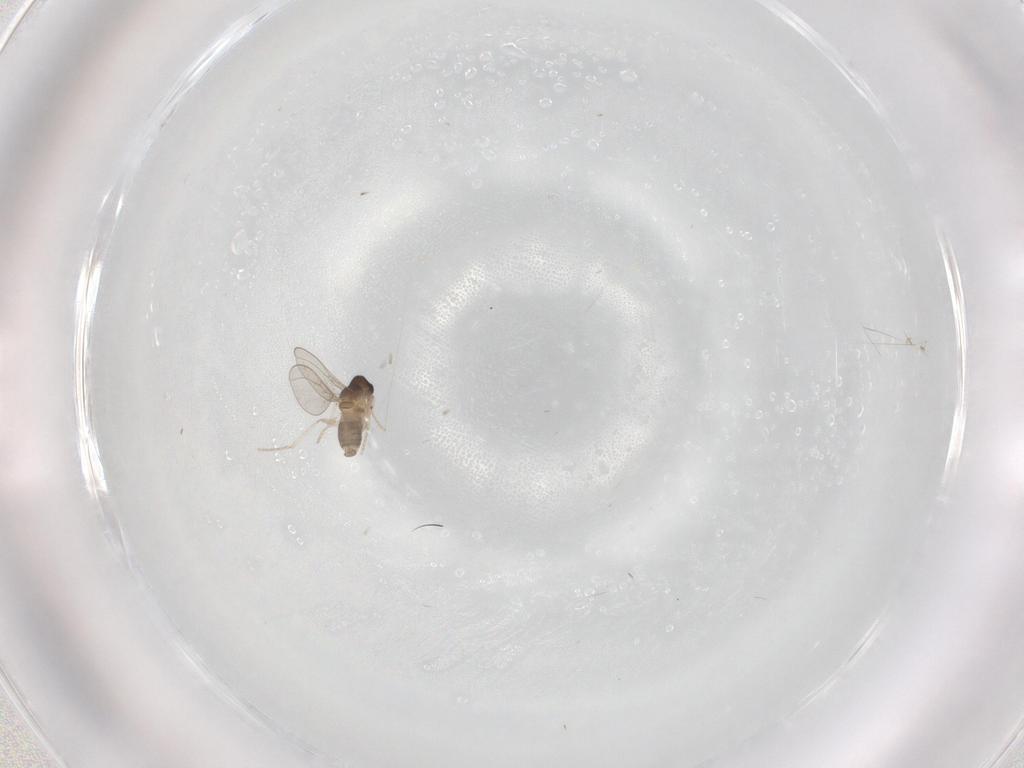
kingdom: Animalia
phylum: Arthropoda
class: Insecta
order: Diptera
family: Cecidomyiidae
